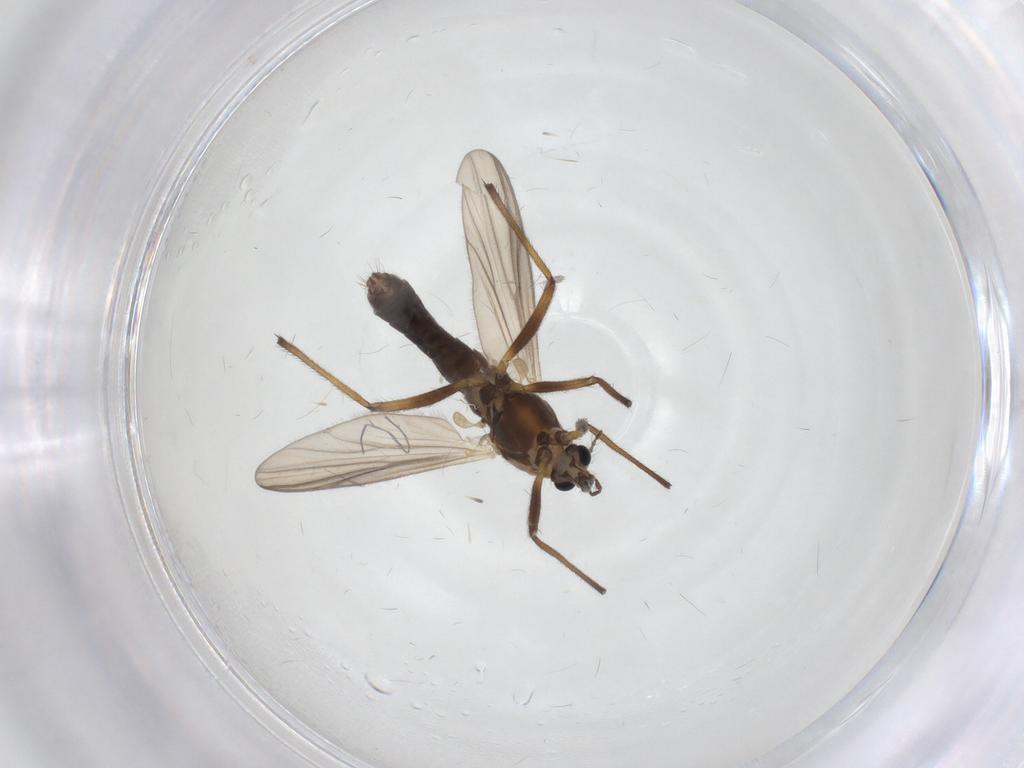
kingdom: Animalia
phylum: Arthropoda
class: Insecta
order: Diptera
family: Chironomidae
